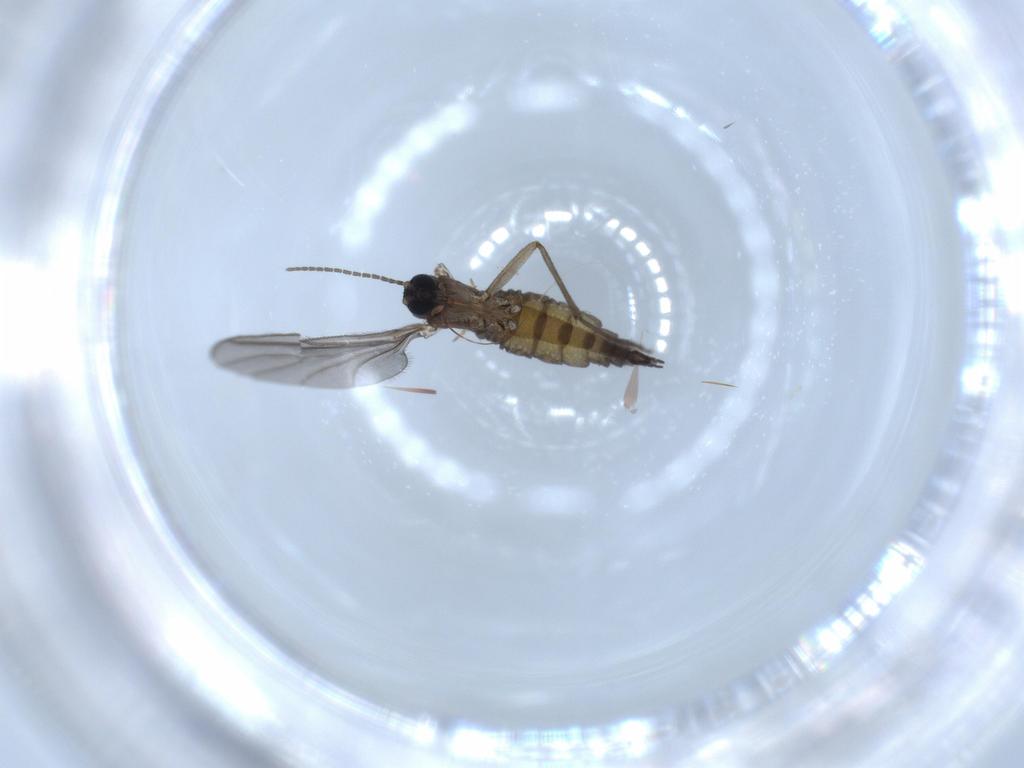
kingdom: Animalia
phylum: Arthropoda
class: Insecta
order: Diptera
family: Sciaridae
